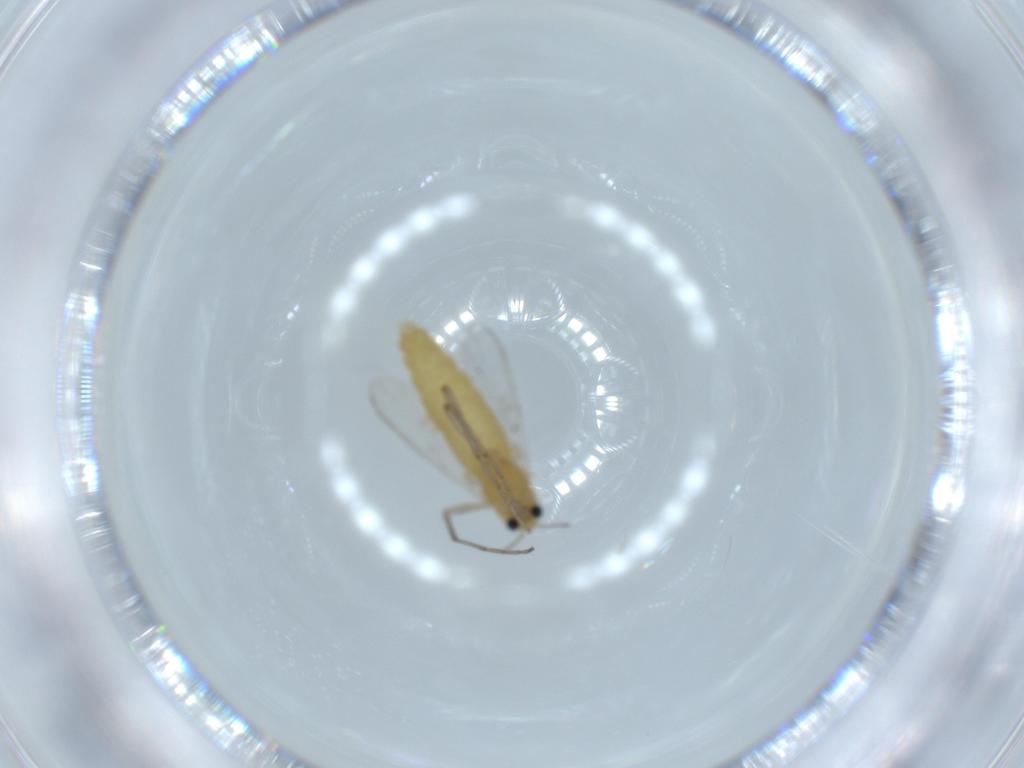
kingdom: Animalia
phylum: Arthropoda
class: Insecta
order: Diptera
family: Chironomidae
